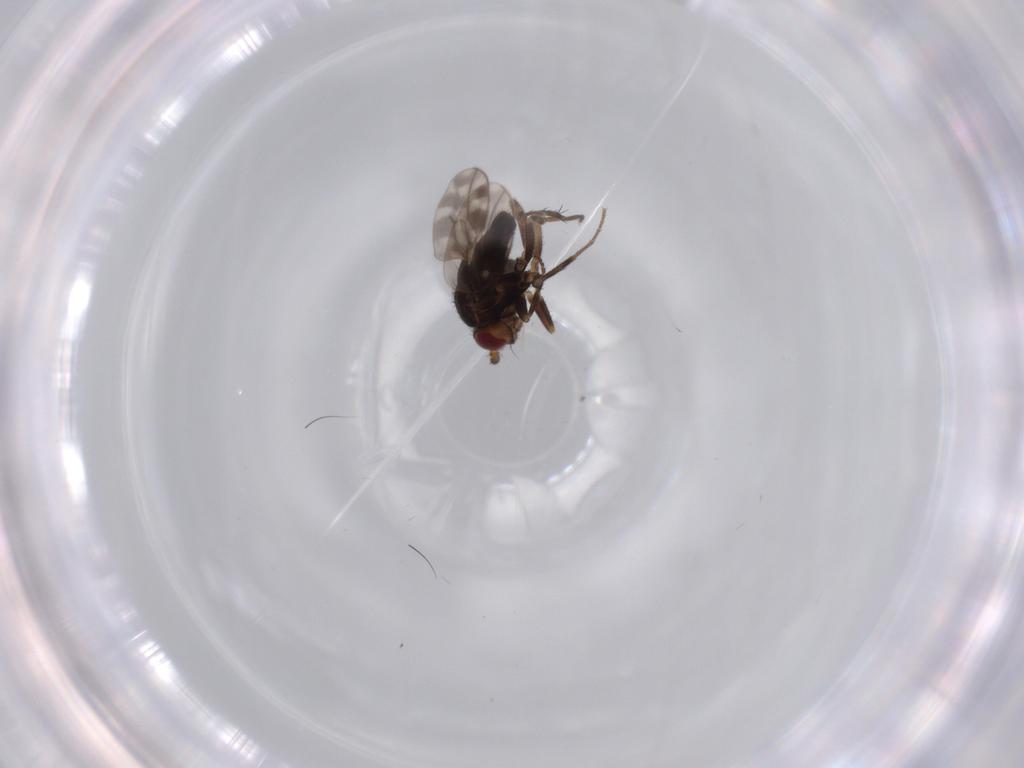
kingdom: Animalia
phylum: Arthropoda
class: Insecta
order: Diptera
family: Sphaeroceridae
